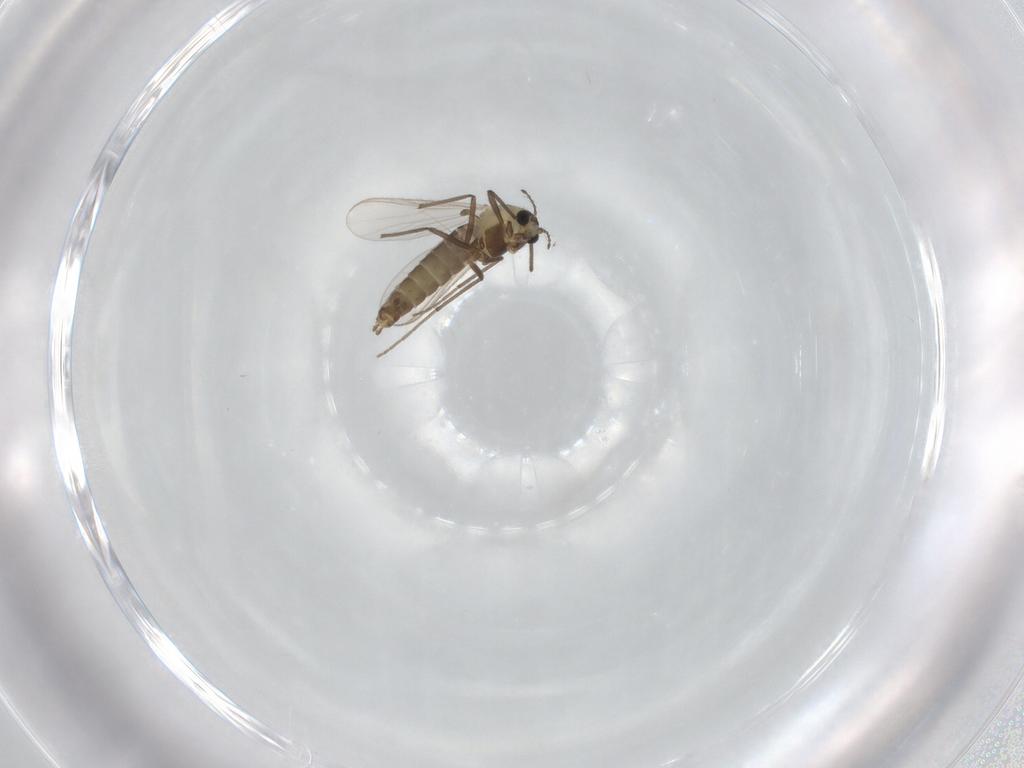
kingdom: Animalia
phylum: Arthropoda
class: Insecta
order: Diptera
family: Chironomidae
